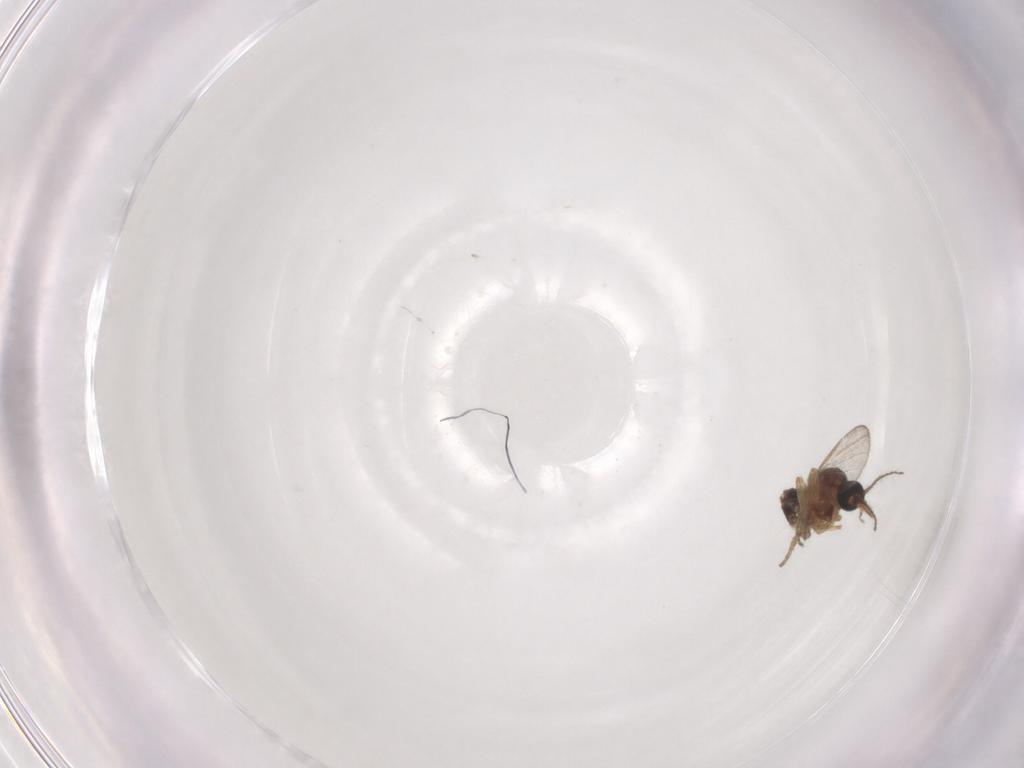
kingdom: Animalia
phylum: Arthropoda
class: Insecta
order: Diptera
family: Ceratopogonidae
